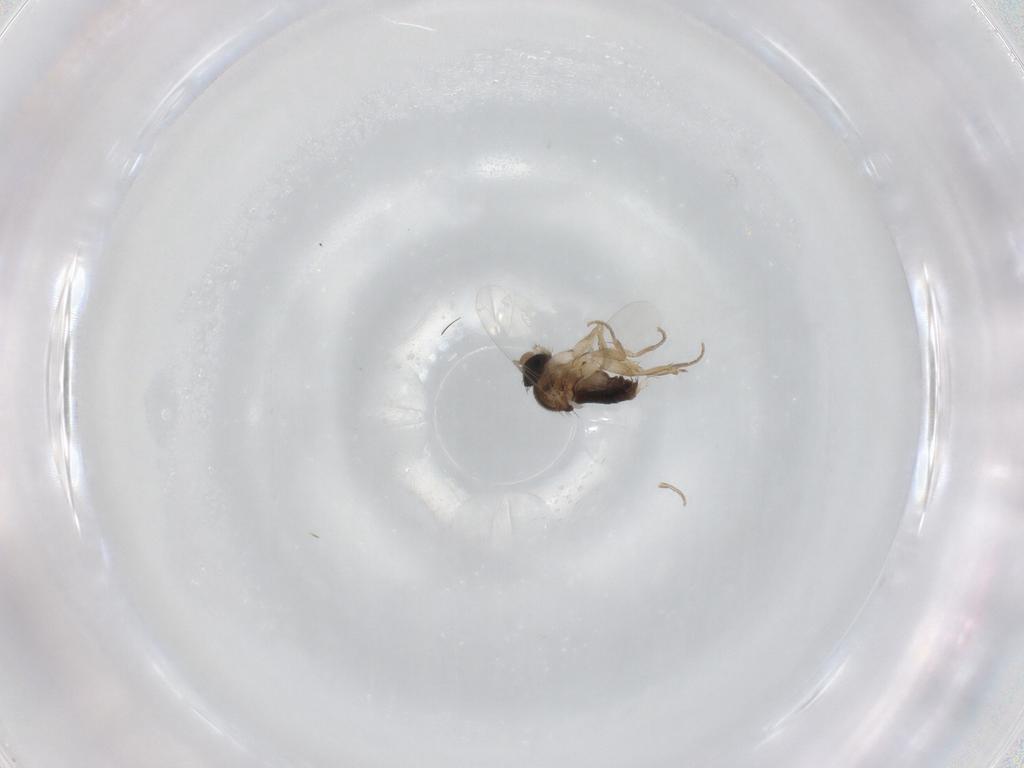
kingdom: Animalia
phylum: Arthropoda
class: Insecta
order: Diptera
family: Phoridae
